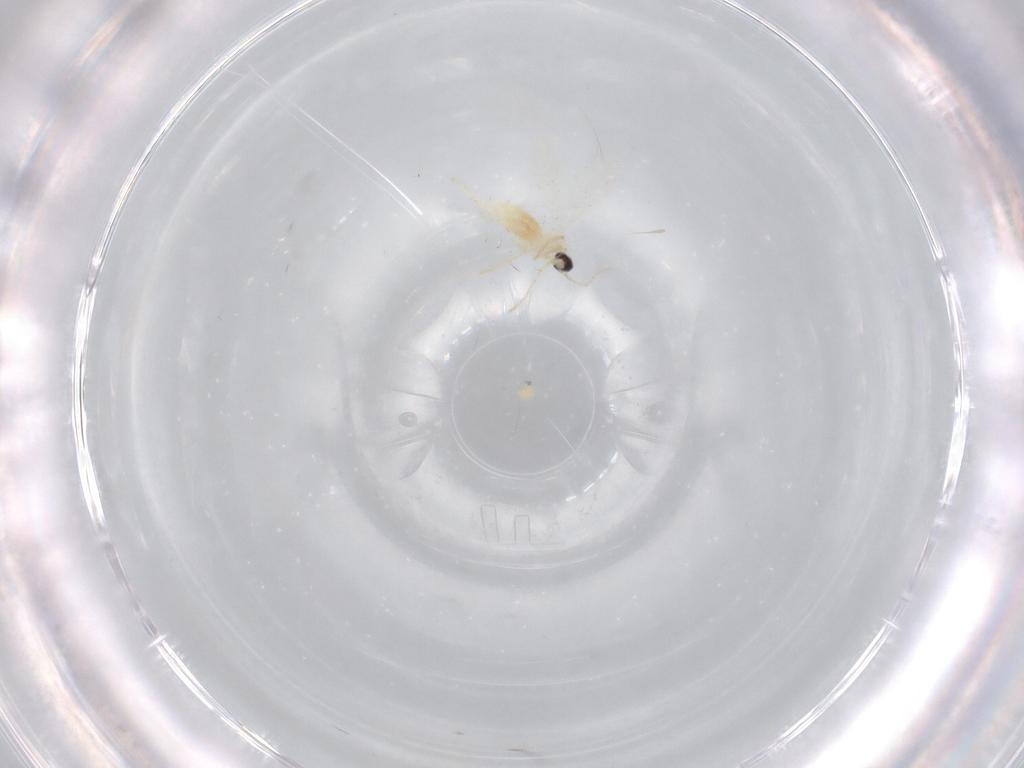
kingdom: Animalia
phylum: Arthropoda
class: Insecta
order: Diptera
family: Cecidomyiidae
